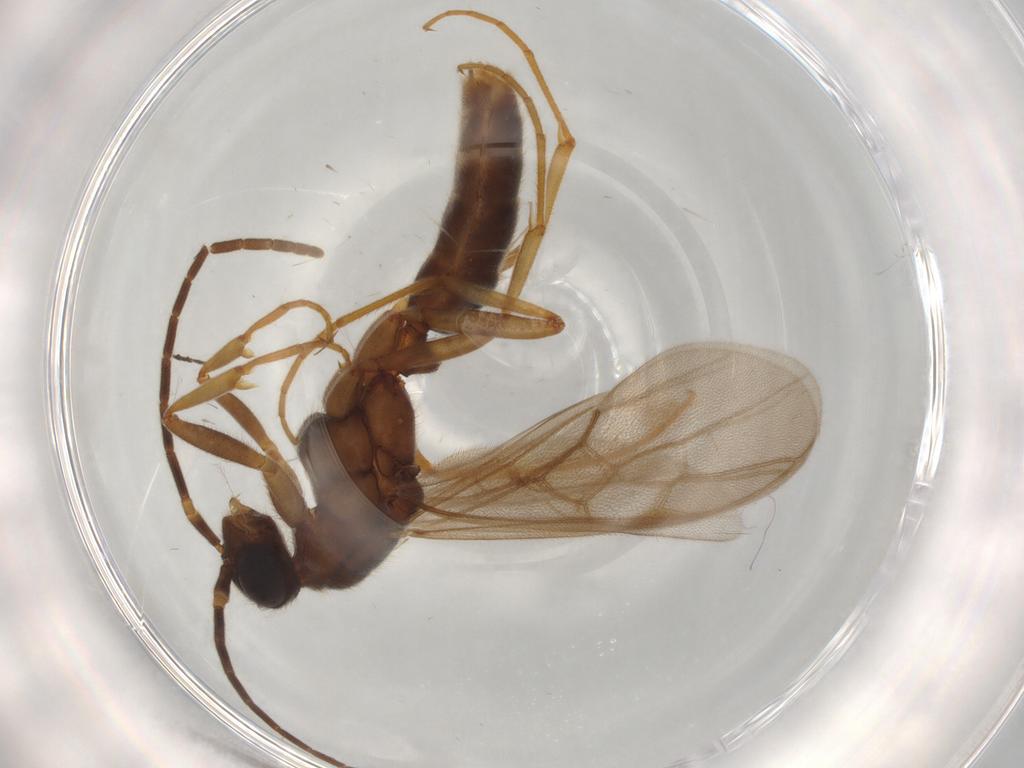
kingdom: Animalia
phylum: Arthropoda
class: Insecta
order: Hymenoptera
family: Formicidae
